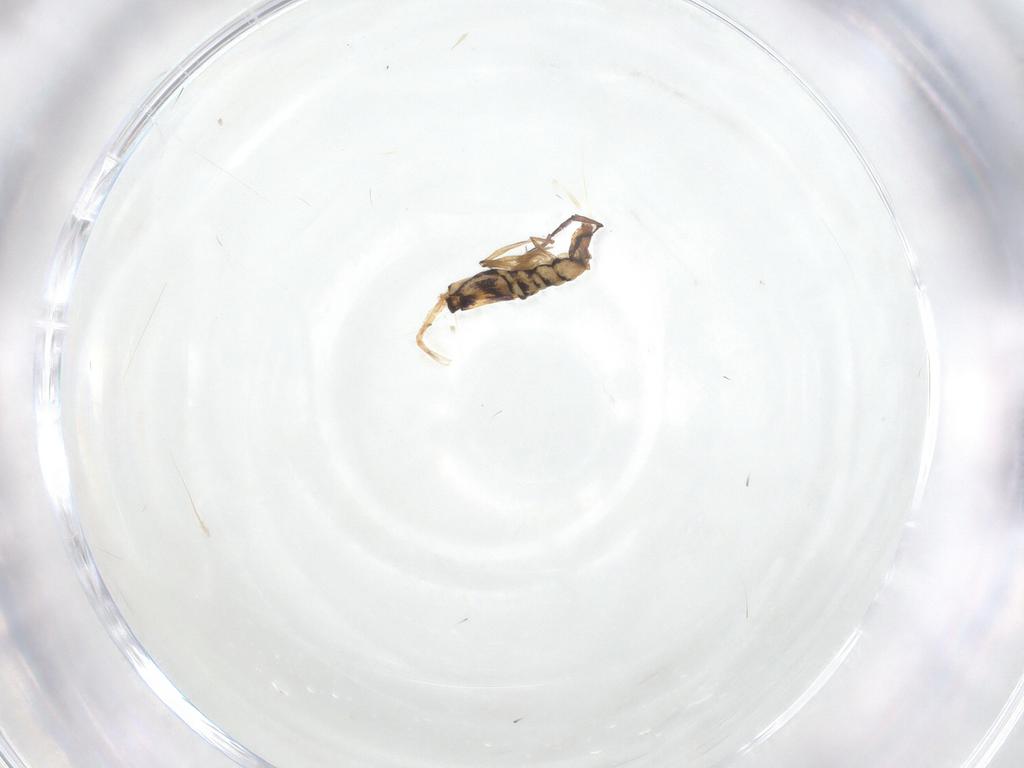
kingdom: Animalia
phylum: Arthropoda
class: Collembola
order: Entomobryomorpha
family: Entomobryidae
